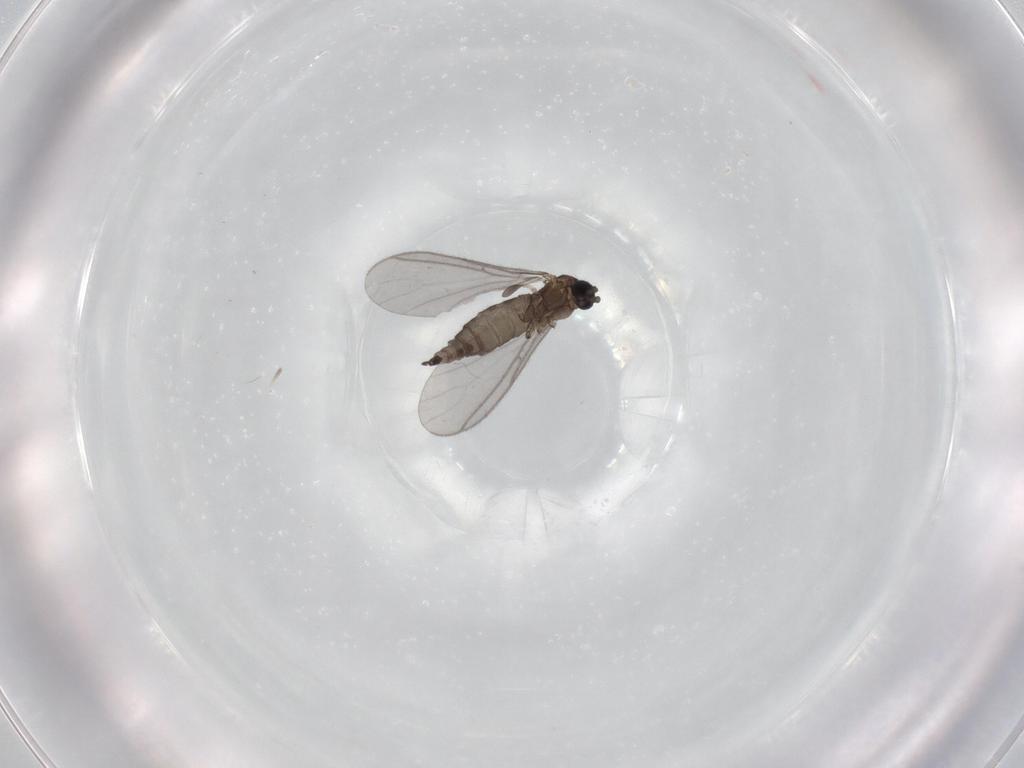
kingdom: Animalia
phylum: Arthropoda
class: Insecta
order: Diptera
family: Sciaridae
